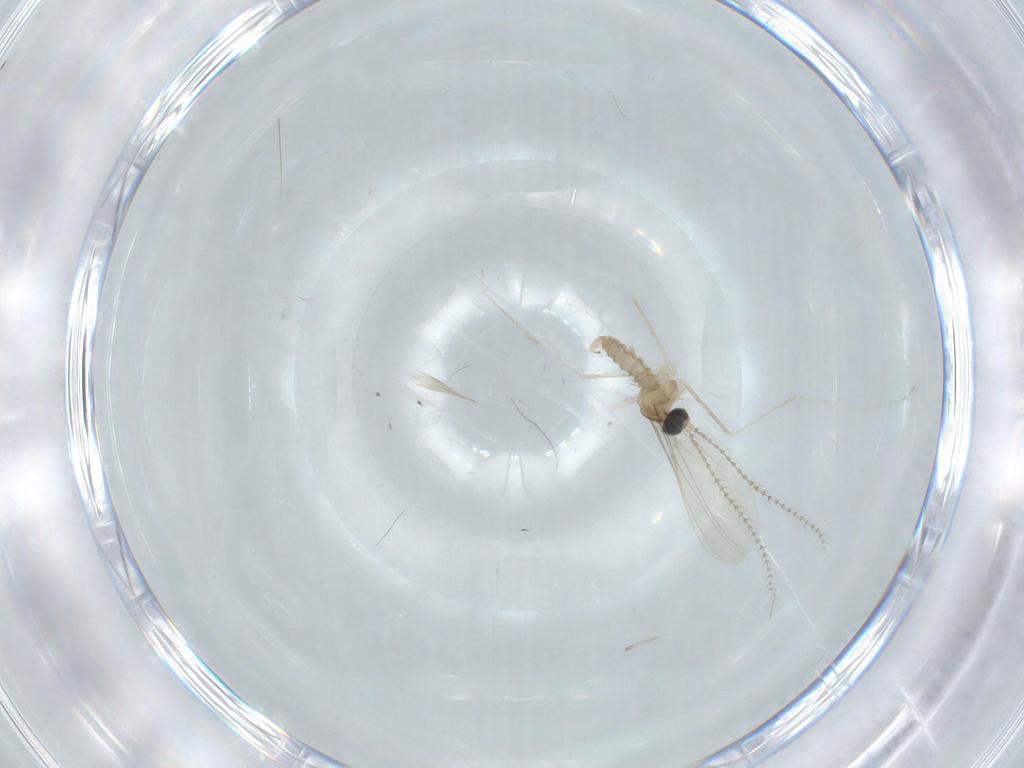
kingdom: Animalia
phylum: Arthropoda
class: Insecta
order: Diptera
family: Cecidomyiidae
